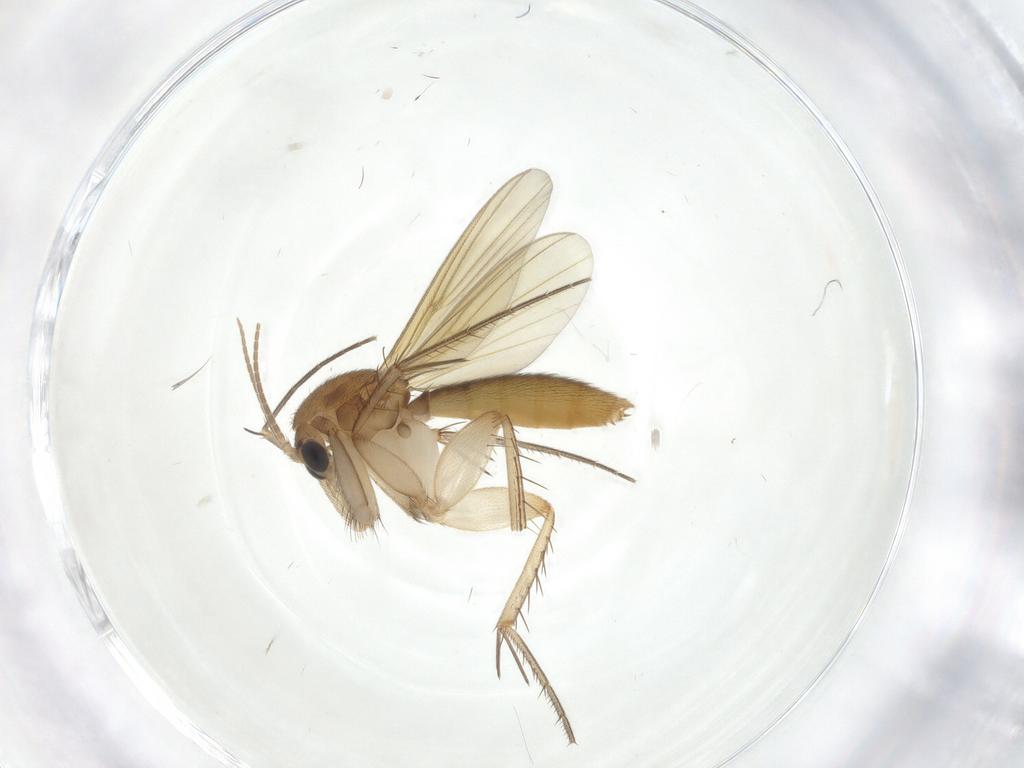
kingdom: Animalia
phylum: Arthropoda
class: Insecta
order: Diptera
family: Mycetophilidae
